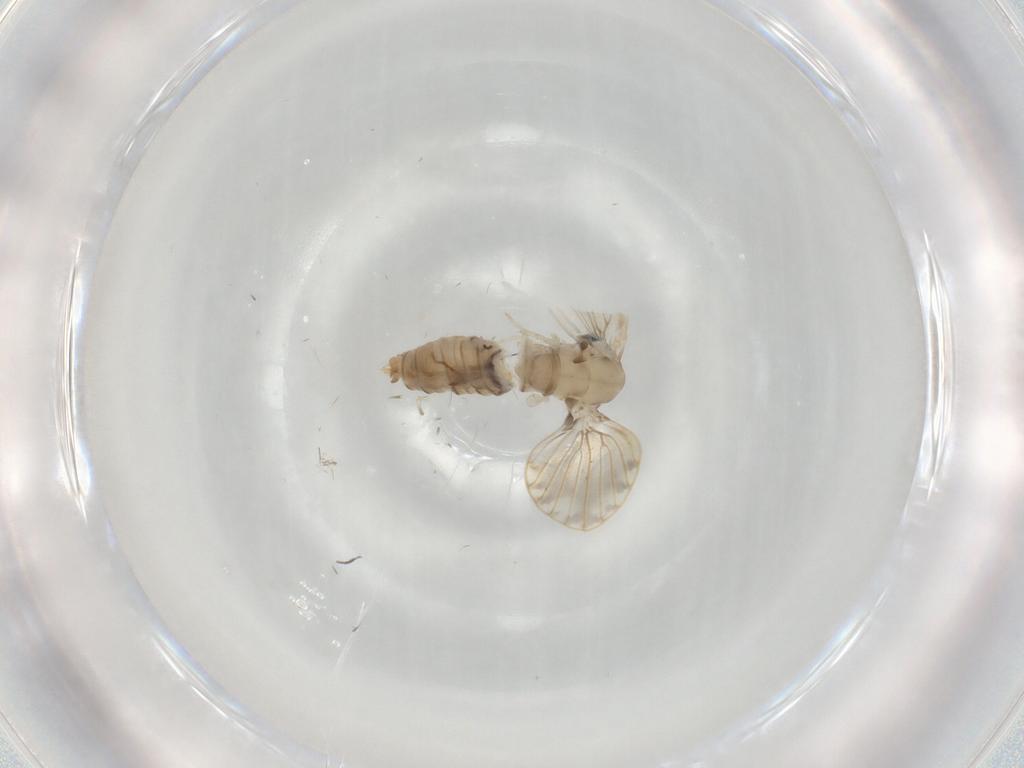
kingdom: Animalia
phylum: Arthropoda
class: Insecta
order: Diptera
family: Psychodidae
